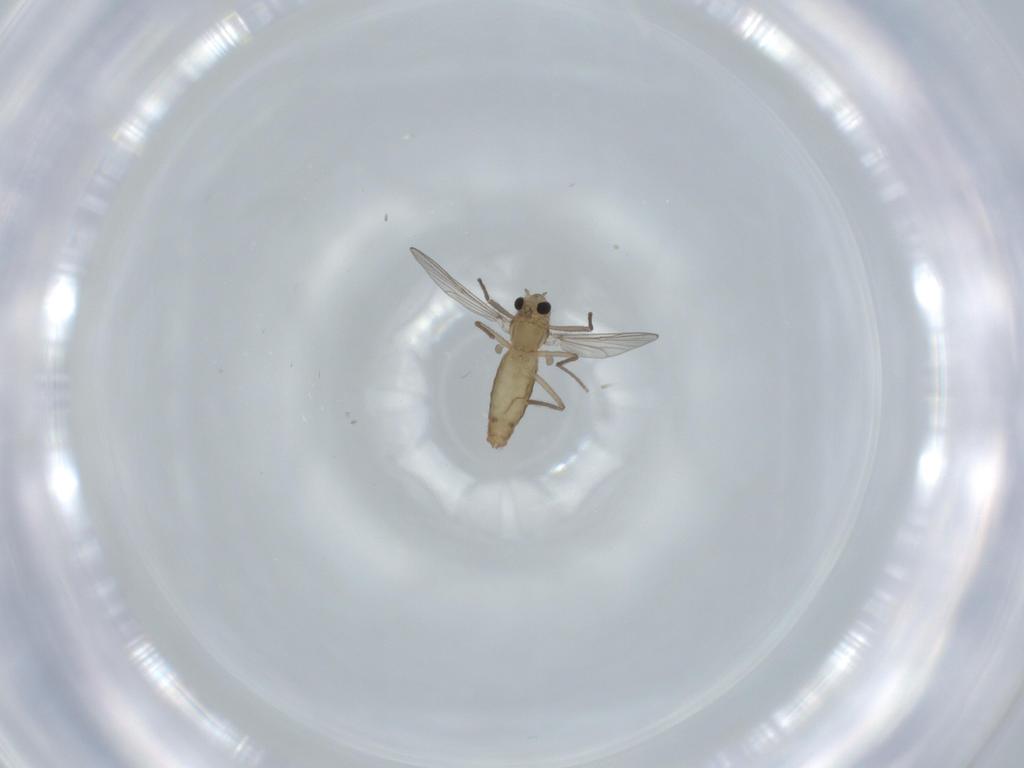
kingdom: Animalia
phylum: Arthropoda
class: Insecta
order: Diptera
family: Chironomidae
